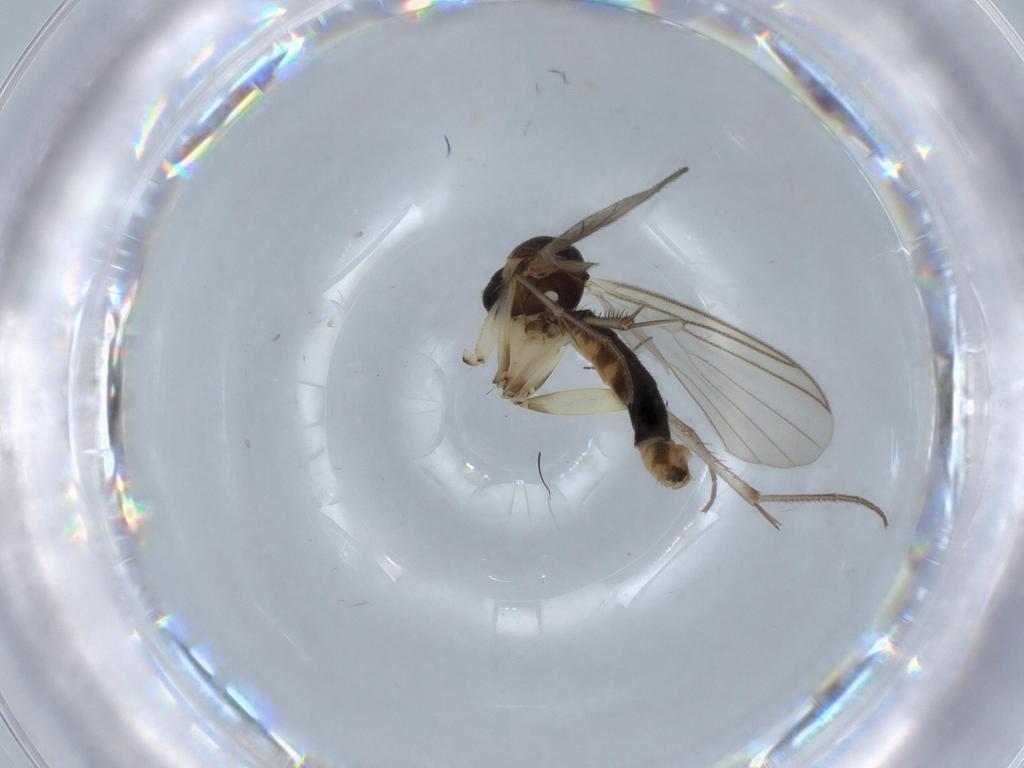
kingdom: Animalia
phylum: Arthropoda
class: Insecta
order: Diptera
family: Mycetophilidae
